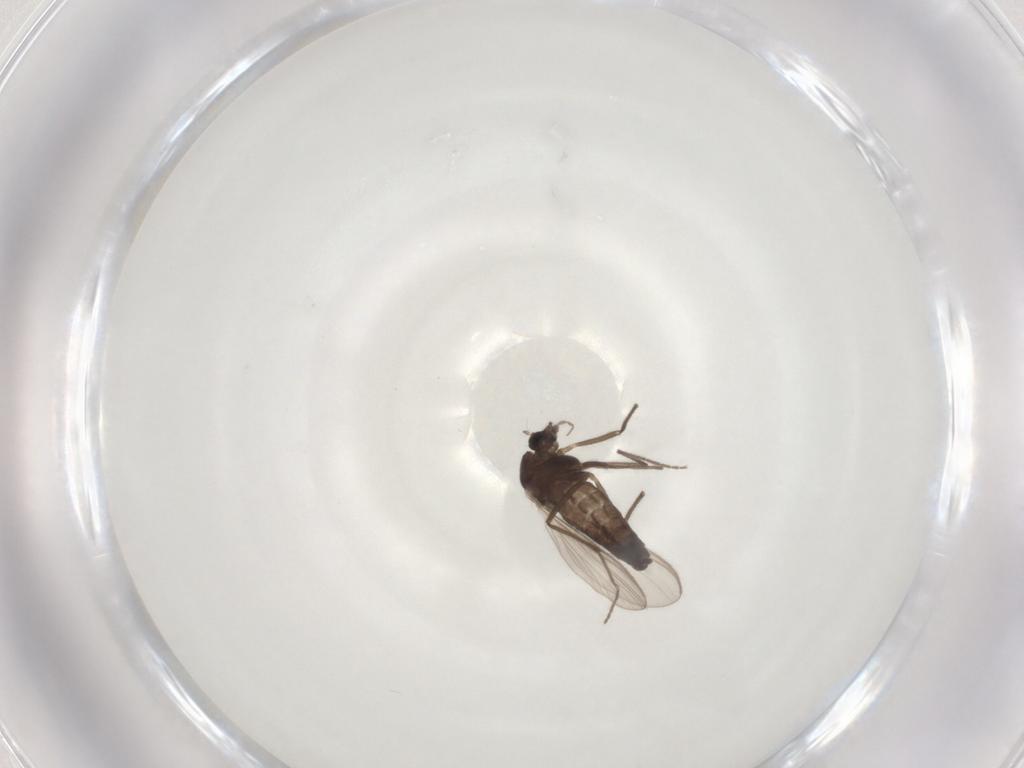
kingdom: Animalia
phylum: Arthropoda
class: Insecta
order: Diptera
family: Chironomidae
